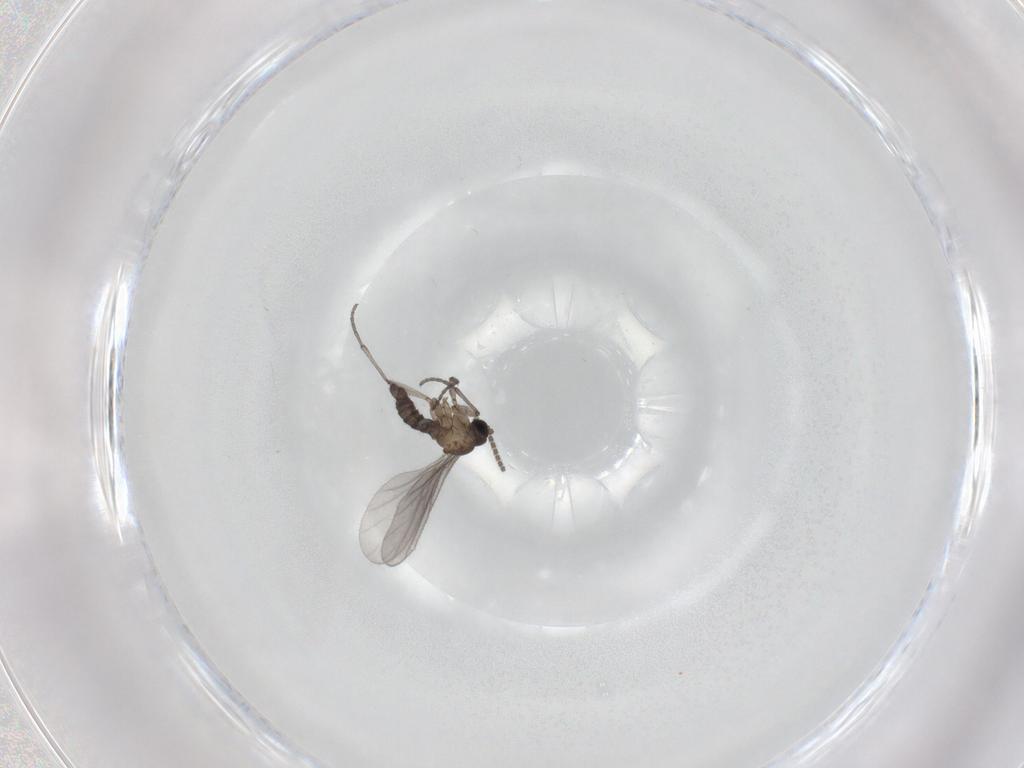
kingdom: Animalia
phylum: Arthropoda
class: Insecta
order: Diptera
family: Sciaridae
